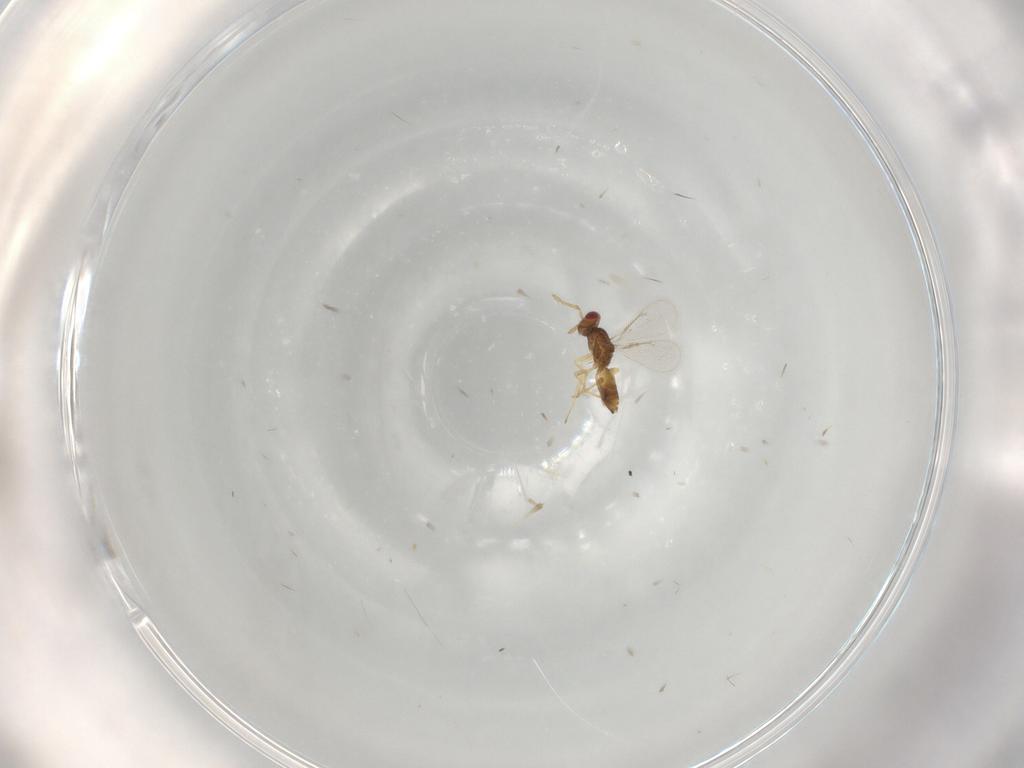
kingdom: Animalia
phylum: Arthropoda
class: Insecta
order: Hymenoptera
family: Eulophidae
